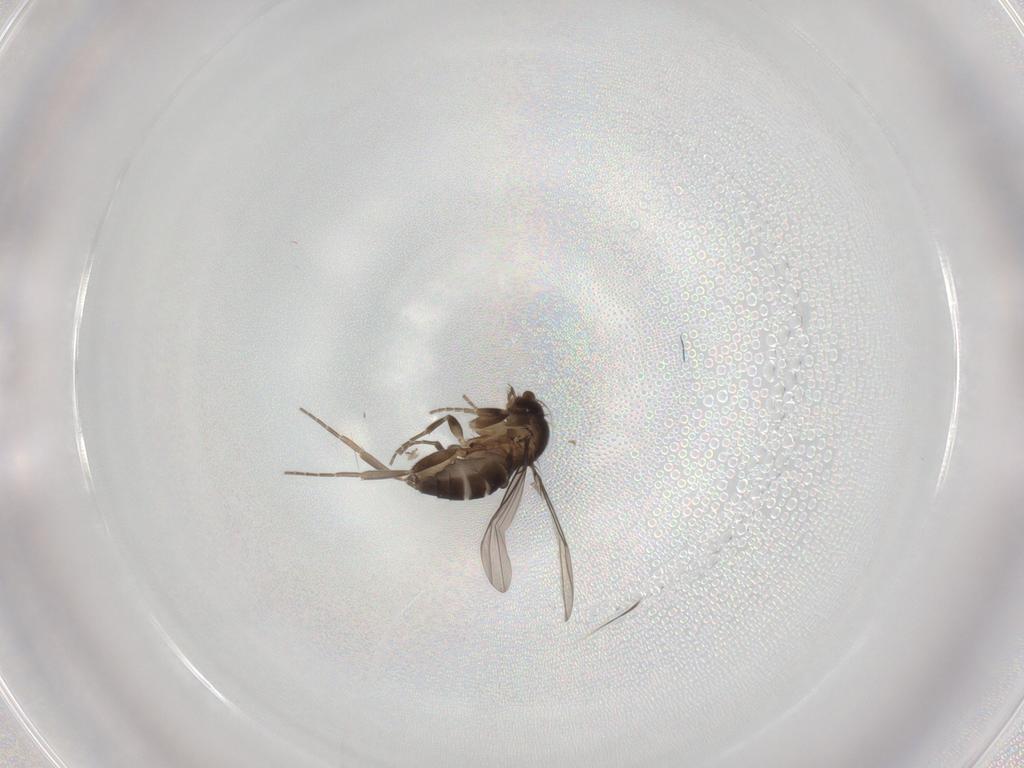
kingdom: Animalia
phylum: Arthropoda
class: Insecta
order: Diptera
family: Phoridae
